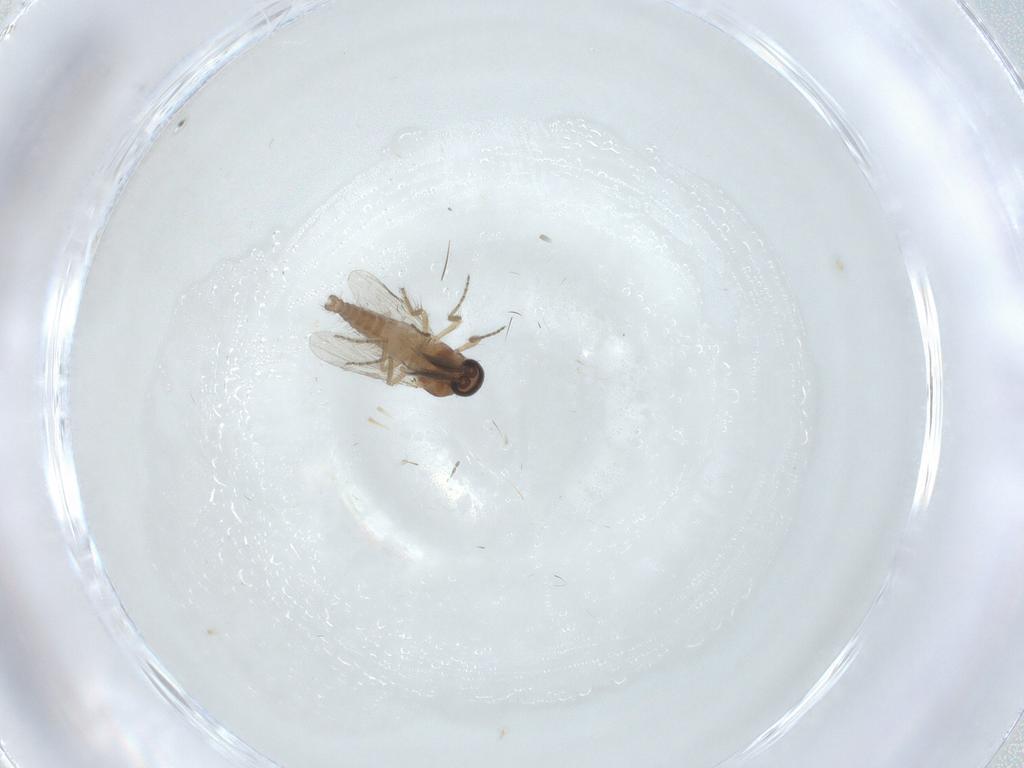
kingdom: Animalia
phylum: Arthropoda
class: Insecta
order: Diptera
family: Ceratopogonidae
